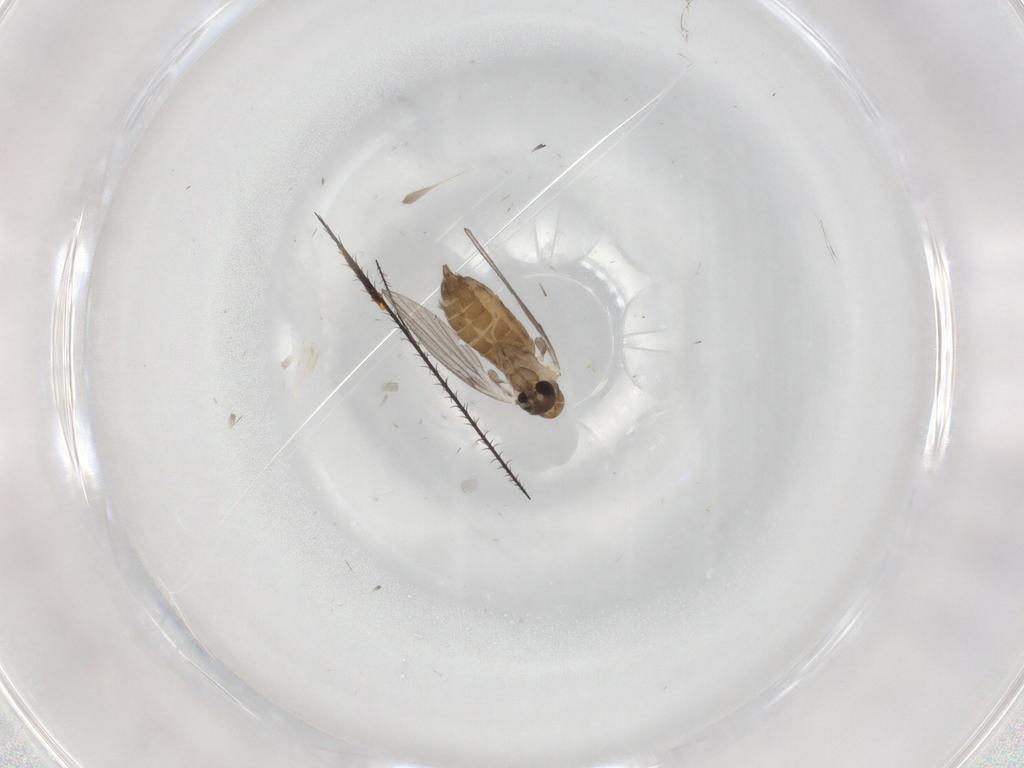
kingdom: Animalia
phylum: Arthropoda
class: Insecta
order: Diptera
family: Psychodidae
